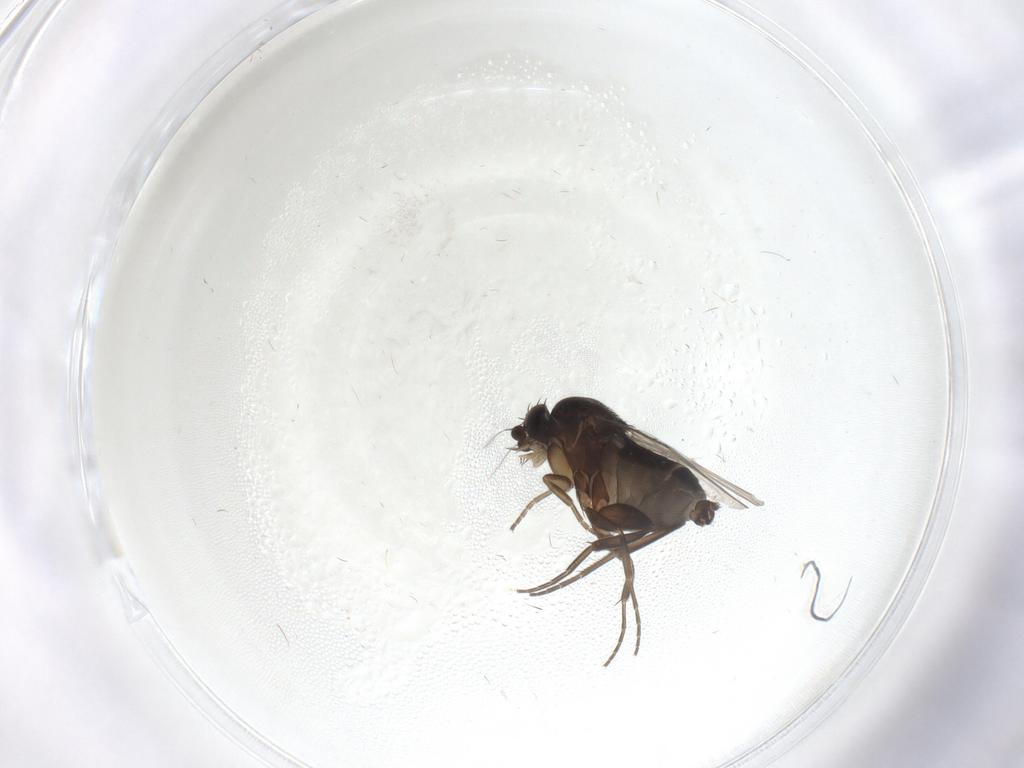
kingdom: Animalia
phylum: Arthropoda
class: Insecta
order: Diptera
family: Phoridae
